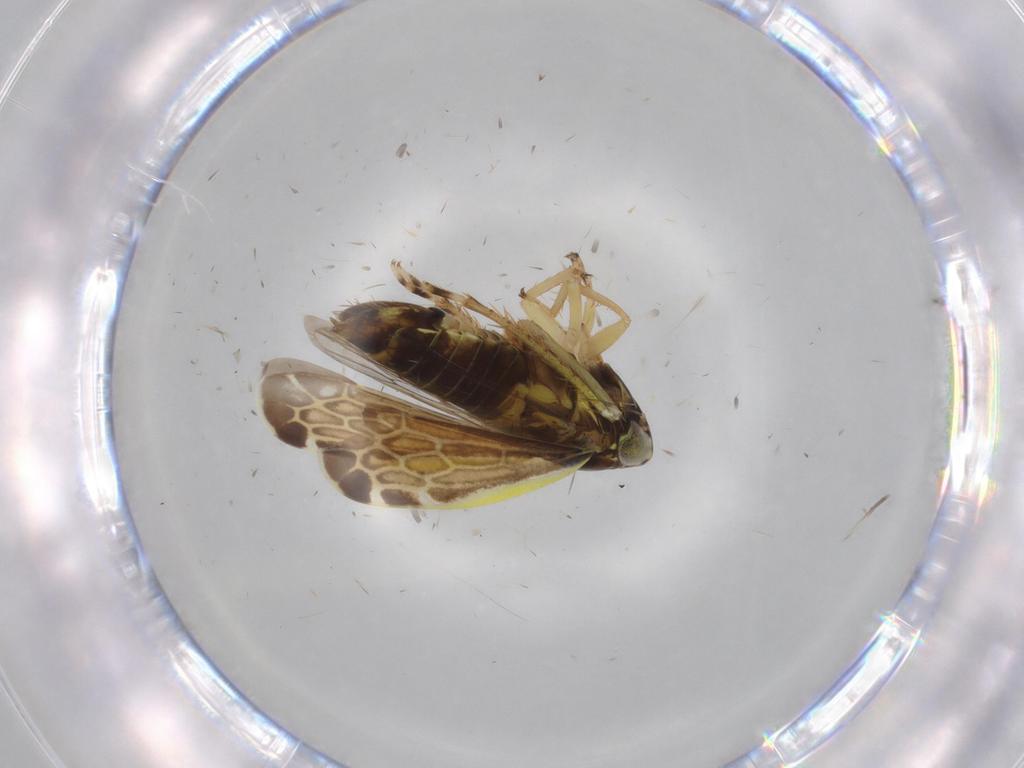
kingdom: Animalia
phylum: Arthropoda
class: Insecta
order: Hemiptera
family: Cicadellidae
